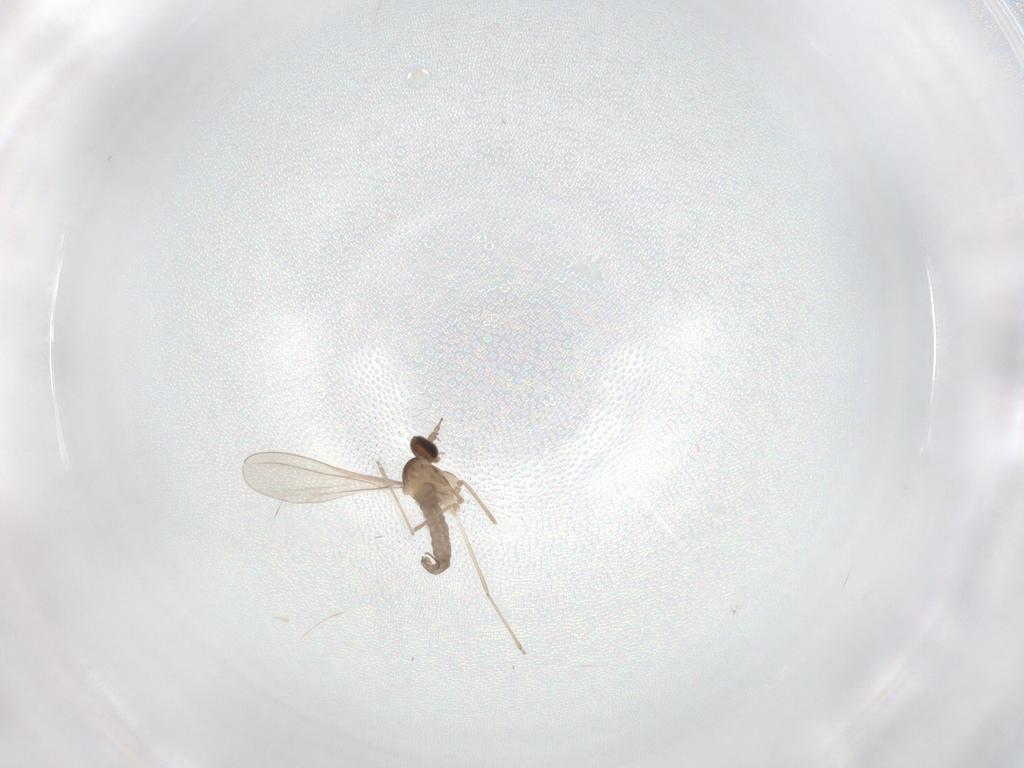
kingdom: Animalia
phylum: Arthropoda
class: Insecta
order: Diptera
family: Cecidomyiidae
